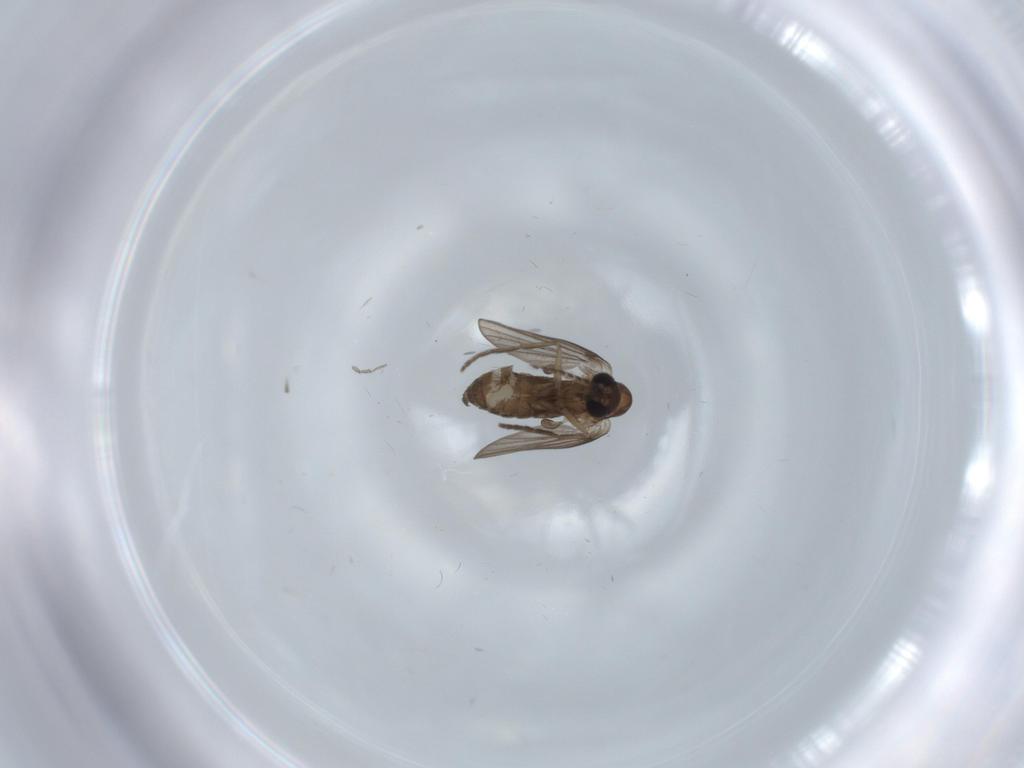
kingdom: Animalia
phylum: Arthropoda
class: Insecta
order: Diptera
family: Psychodidae
